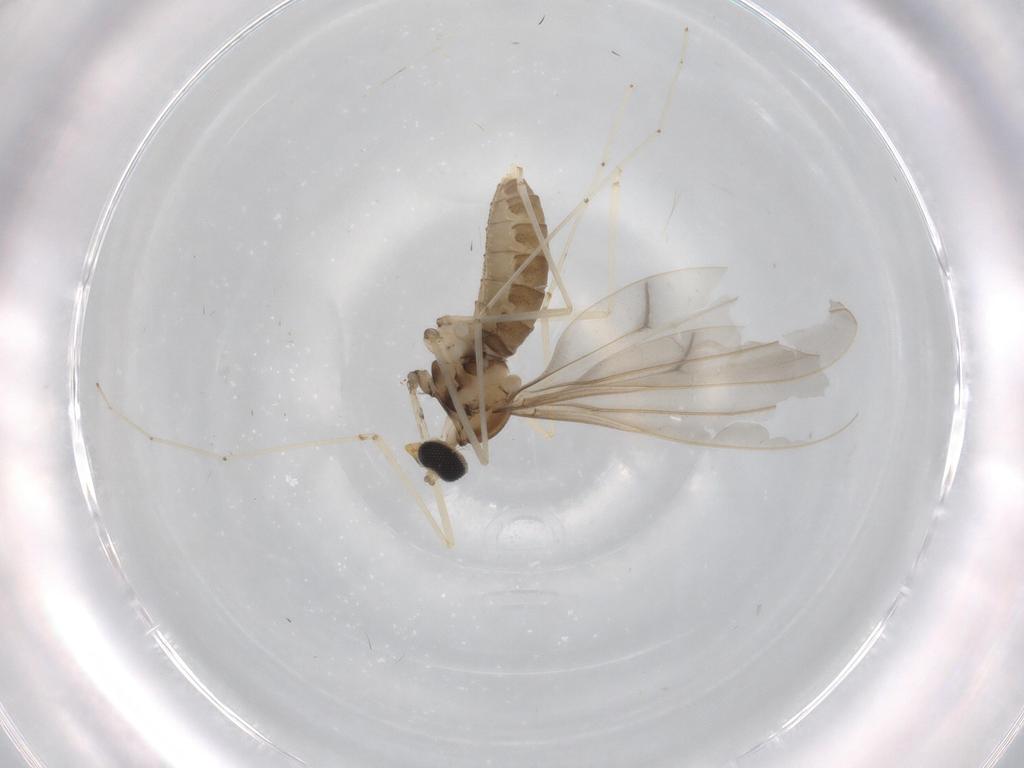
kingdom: Animalia
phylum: Arthropoda
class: Insecta
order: Diptera
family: Cecidomyiidae
